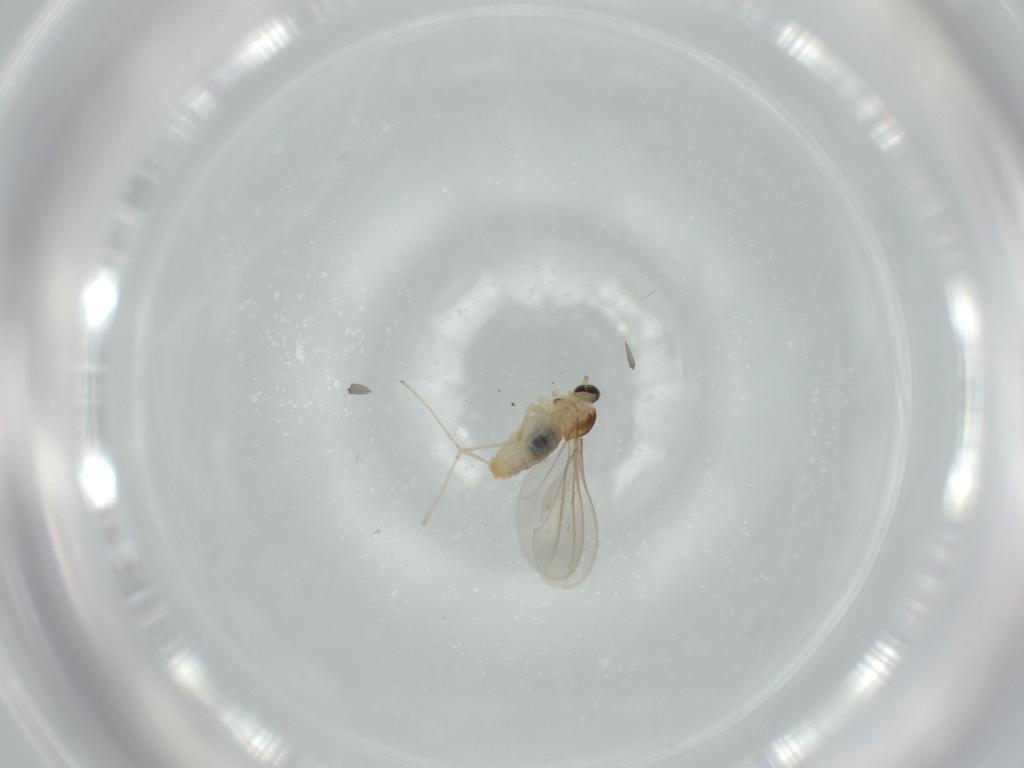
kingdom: Animalia
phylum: Arthropoda
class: Insecta
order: Diptera
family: Cecidomyiidae
